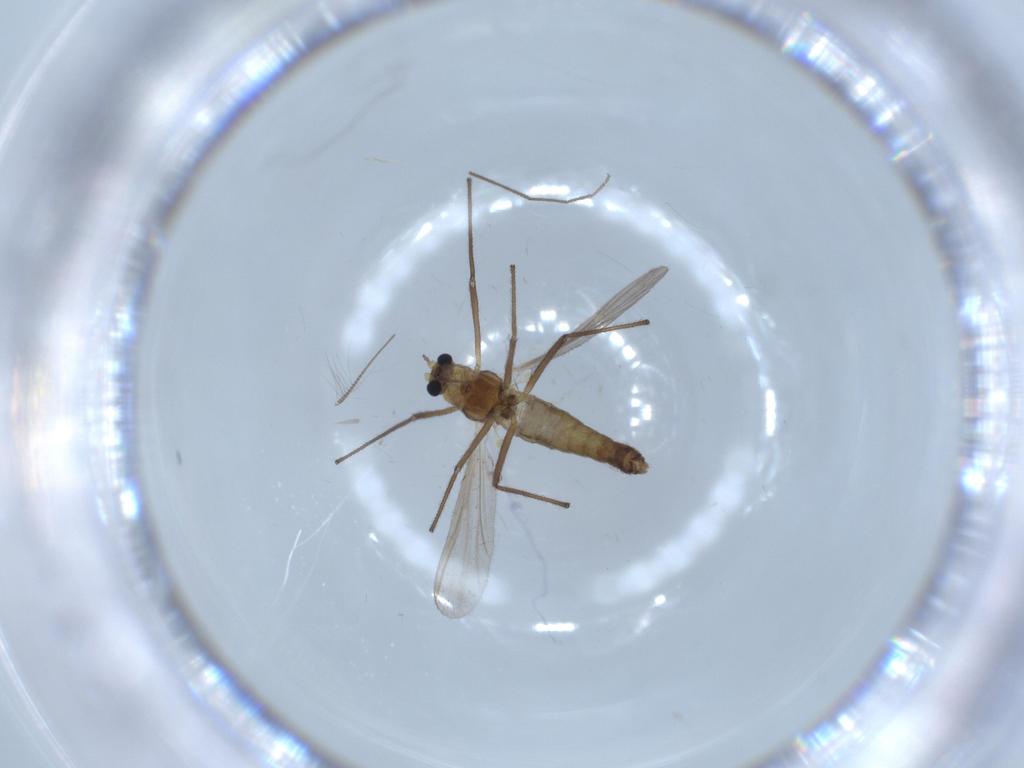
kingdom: Animalia
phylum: Arthropoda
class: Insecta
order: Diptera
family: Chironomidae
